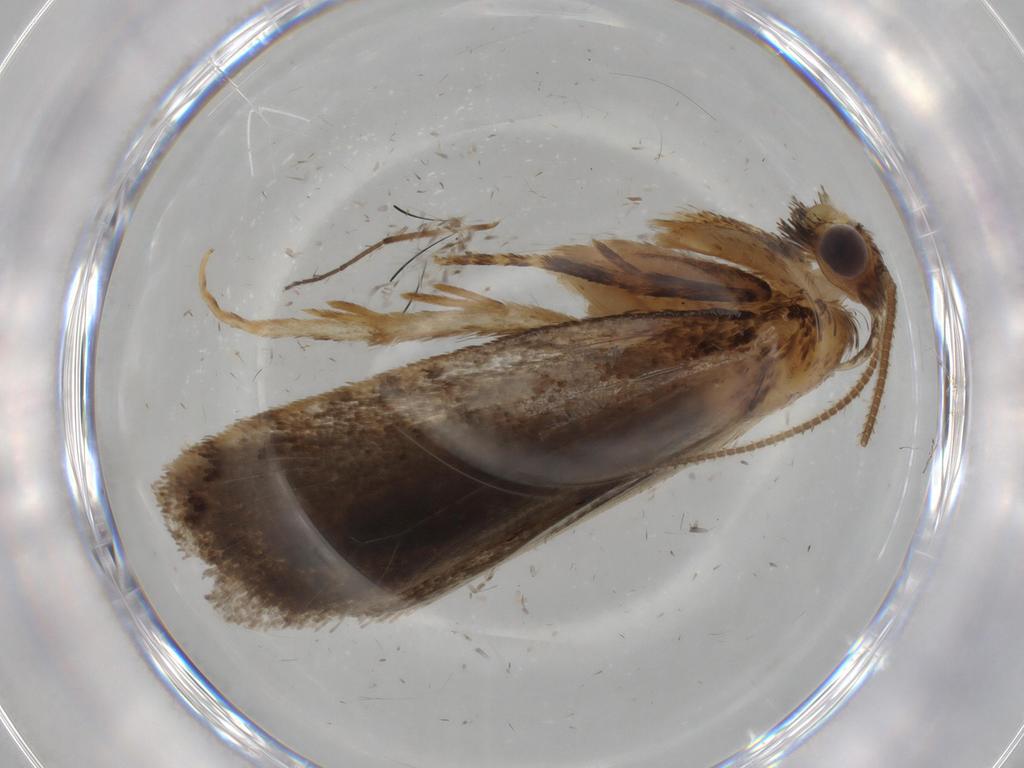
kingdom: Animalia
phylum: Arthropoda
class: Insecta
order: Lepidoptera
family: Tineidae
